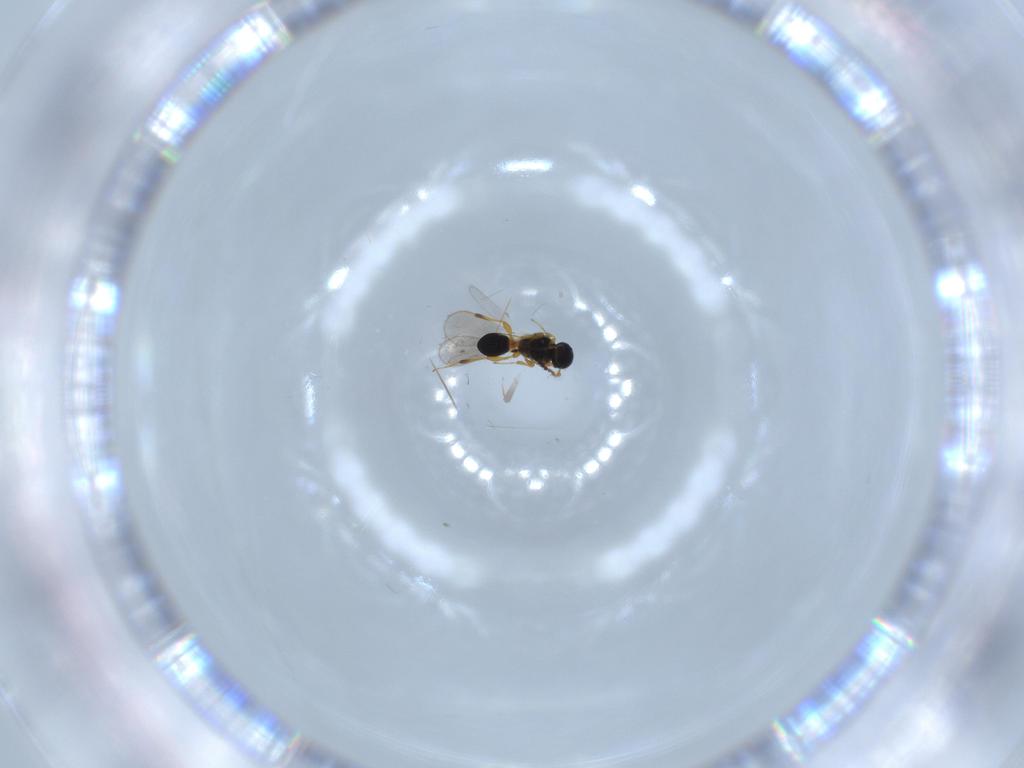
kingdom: Animalia
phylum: Arthropoda
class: Insecta
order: Hymenoptera
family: Platygastridae
